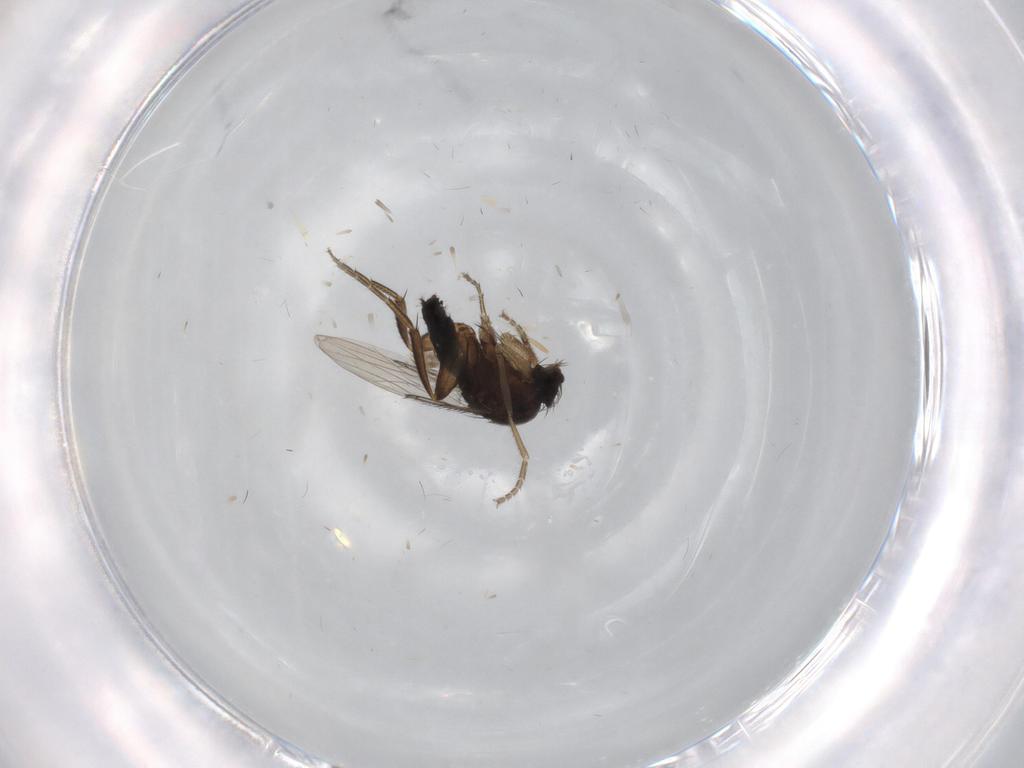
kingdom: Animalia
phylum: Arthropoda
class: Insecta
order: Diptera
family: Phoridae
